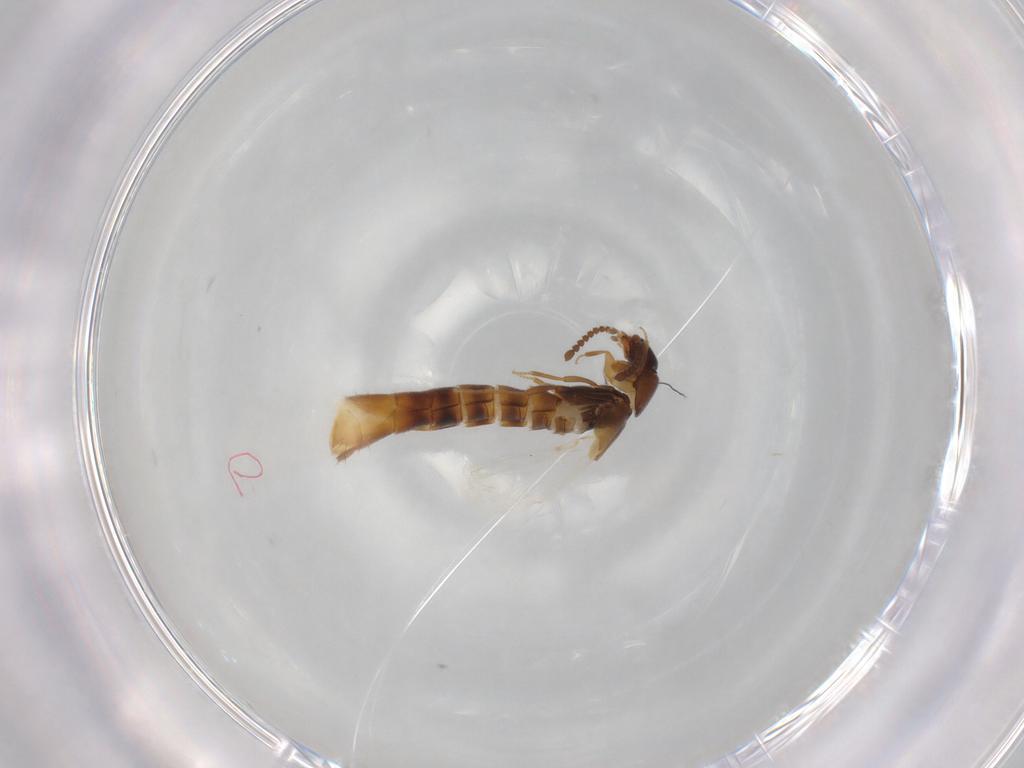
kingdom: Animalia
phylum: Arthropoda
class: Insecta
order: Coleoptera
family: Staphylinidae
